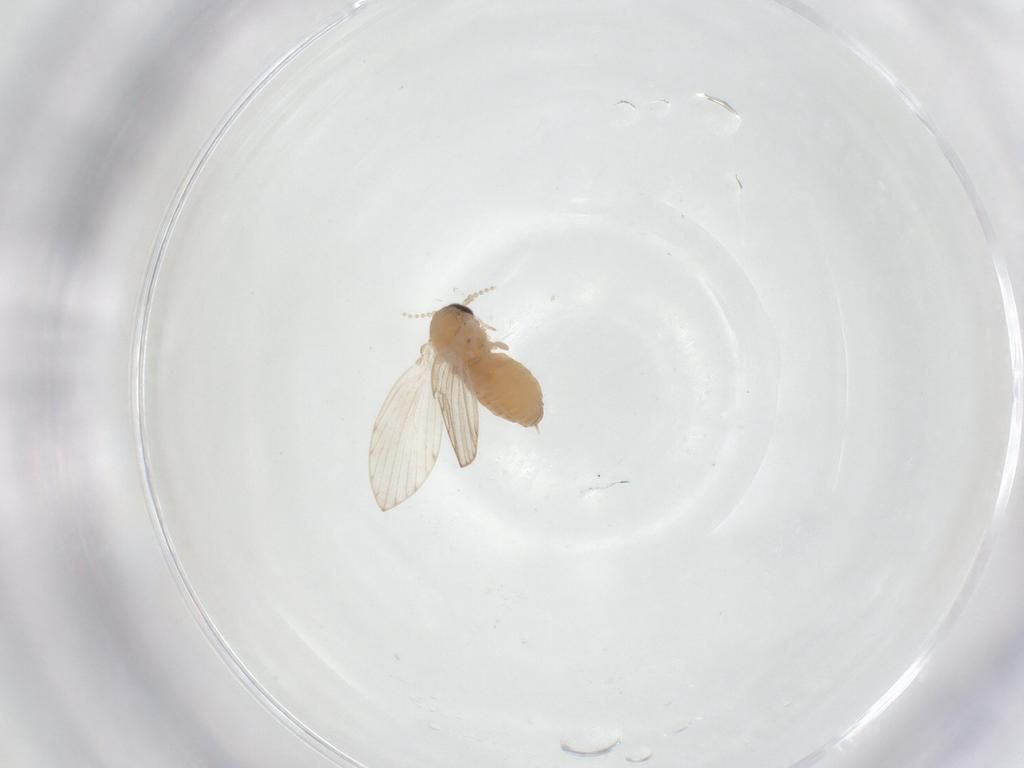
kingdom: Animalia
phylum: Arthropoda
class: Insecta
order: Diptera
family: Psychodidae
